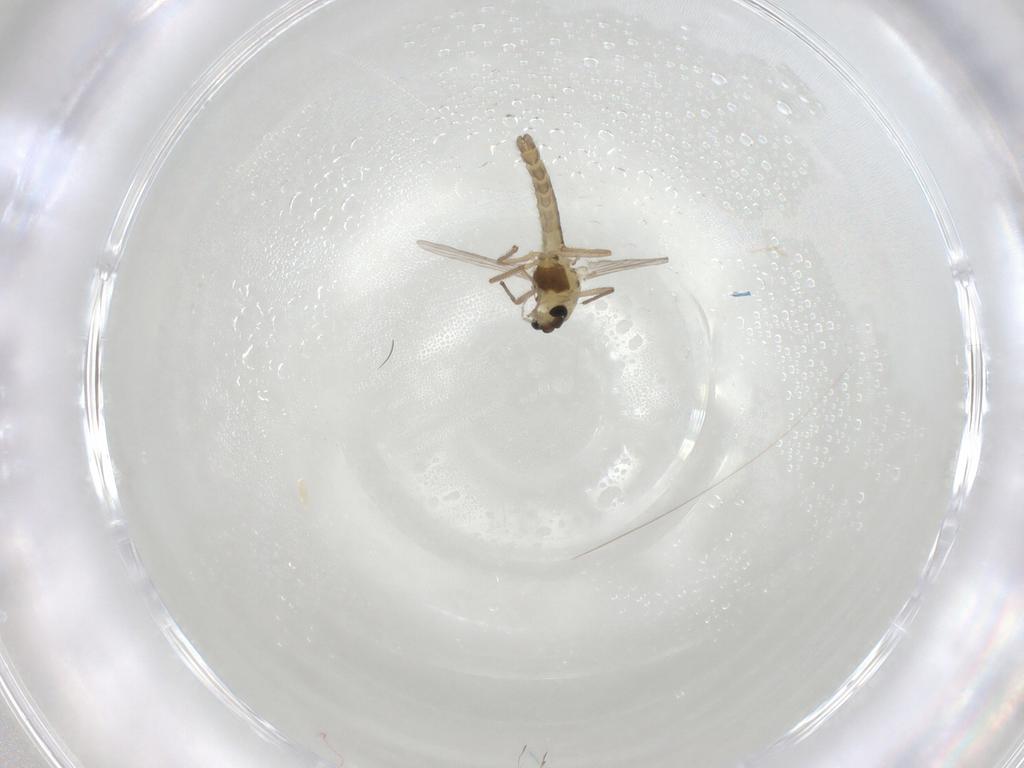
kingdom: Animalia
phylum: Arthropoda
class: Insecta
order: Diptera
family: Chironomidae
